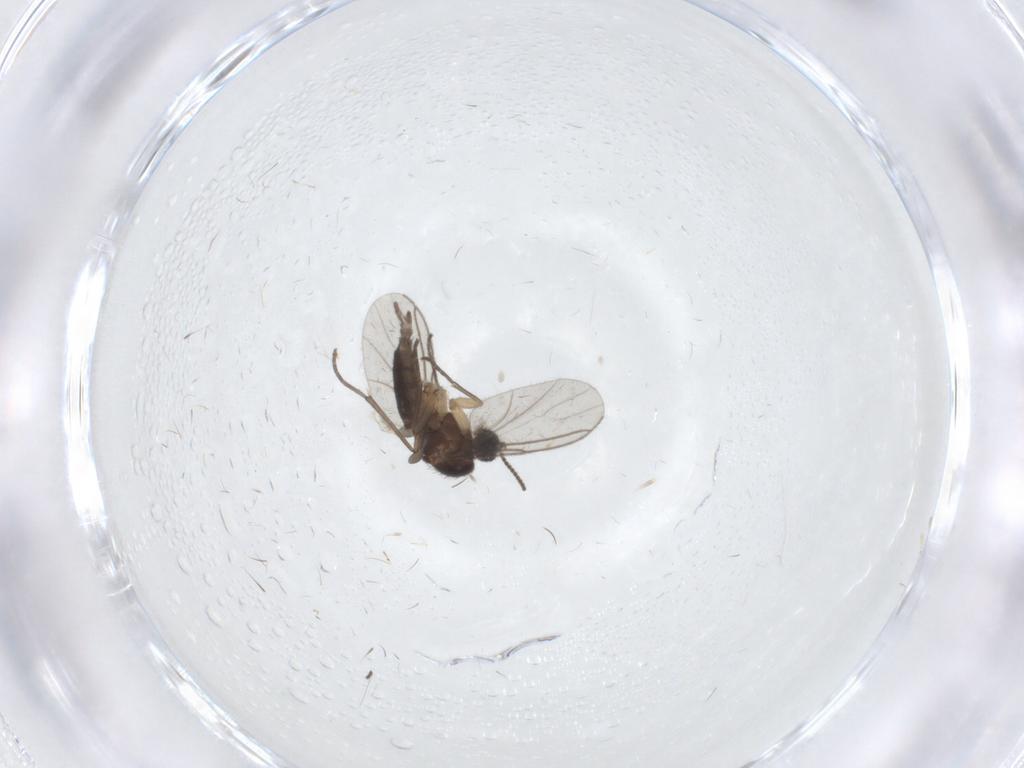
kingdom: Animalia
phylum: Arthropoda
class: Insecta
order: Diptera
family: Sciaridae
